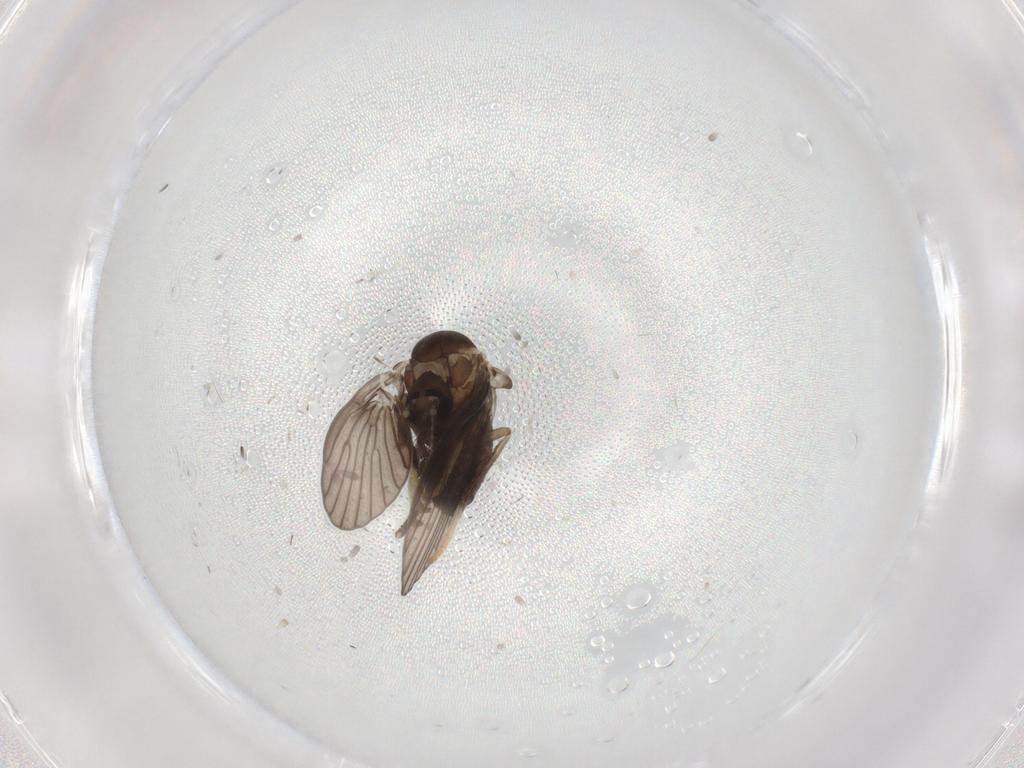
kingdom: Animalia
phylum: Arthropoda
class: Insecta
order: Diptera
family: Psychodidae
